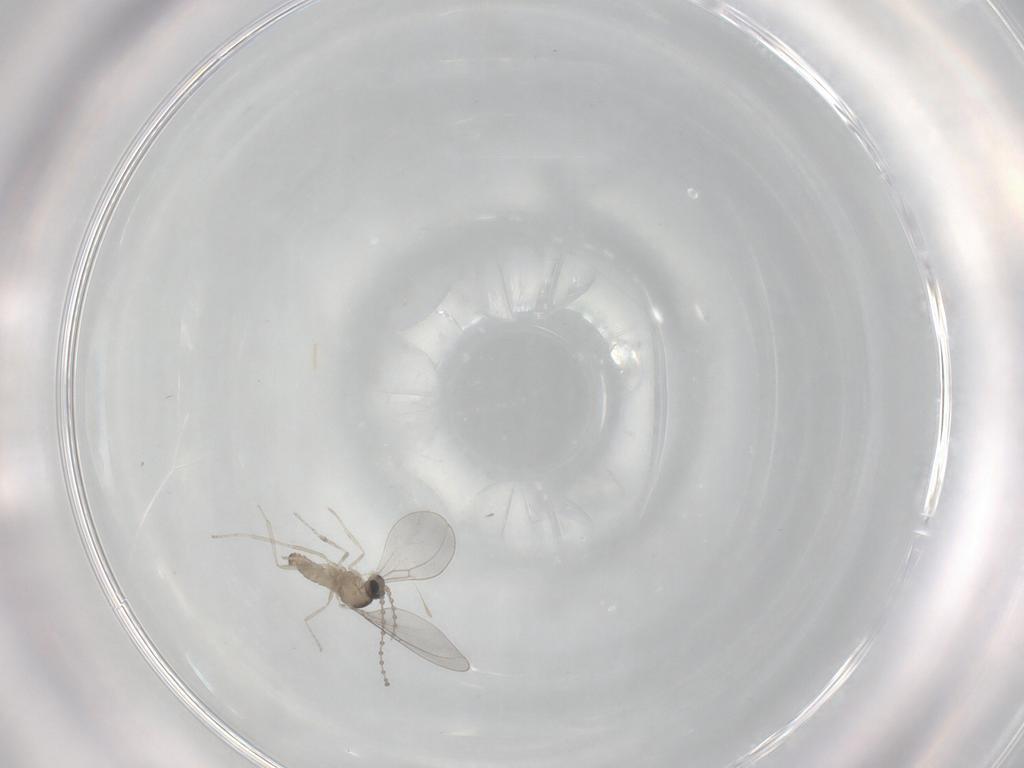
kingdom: Animalia
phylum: Arthropoda
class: Insecta
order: Diptera
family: Cecidomyiidae
